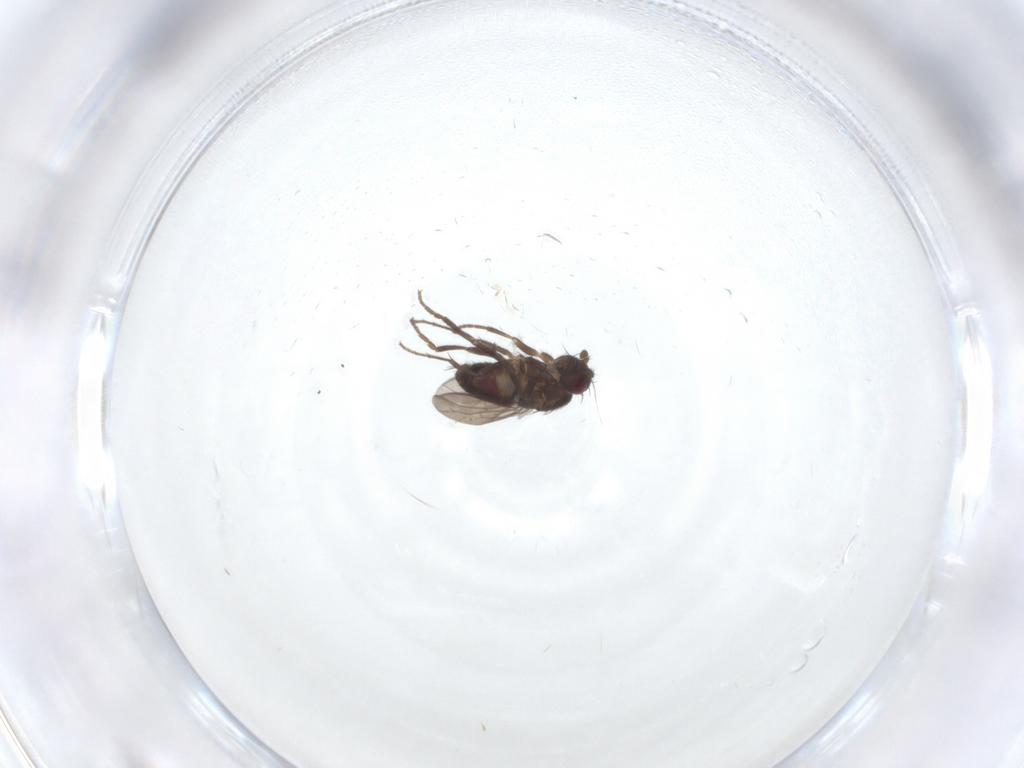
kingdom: Animalia
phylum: Arthropoda
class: Insecta
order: Diptera
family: Sphaeroceridae
